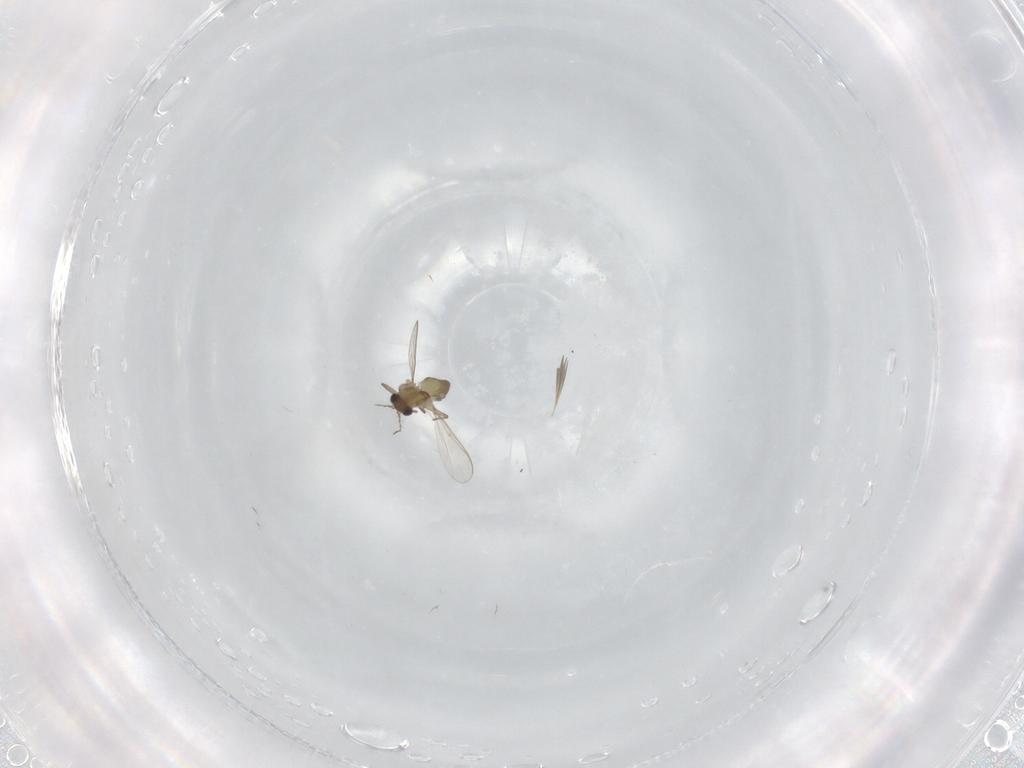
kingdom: Animalia
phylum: Arthropoda
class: Insecta
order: Diptera
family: Chironomidae
